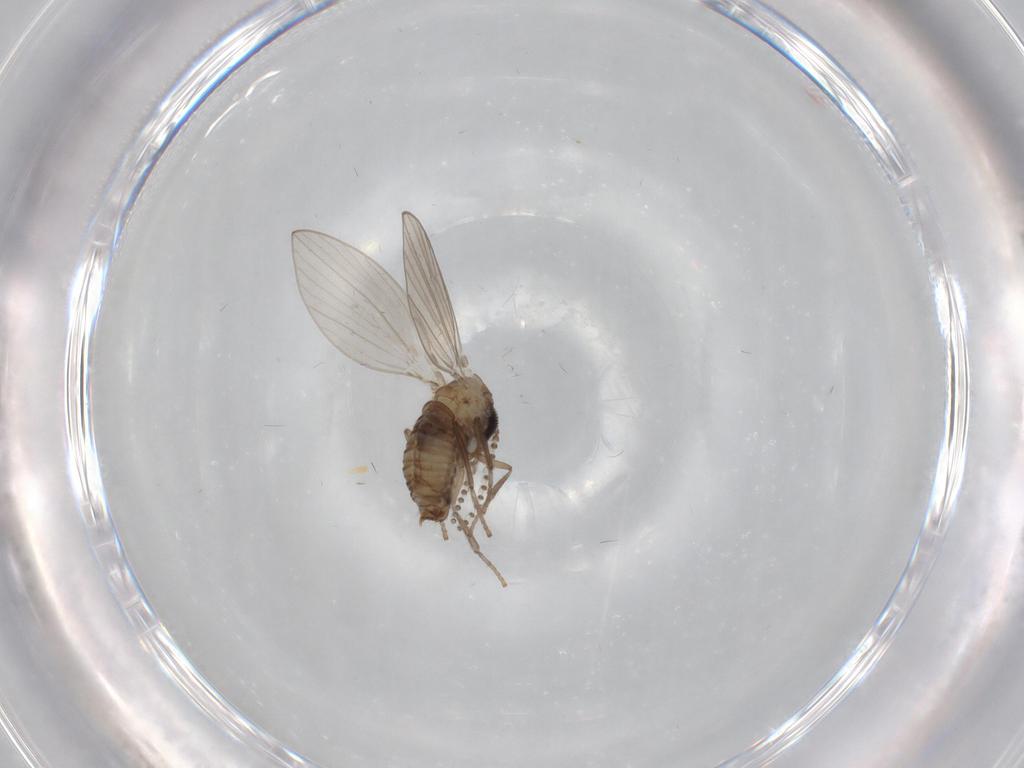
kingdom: Animalia
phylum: Arthropoda
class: Insecta
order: Diptera
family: Psychodidae
